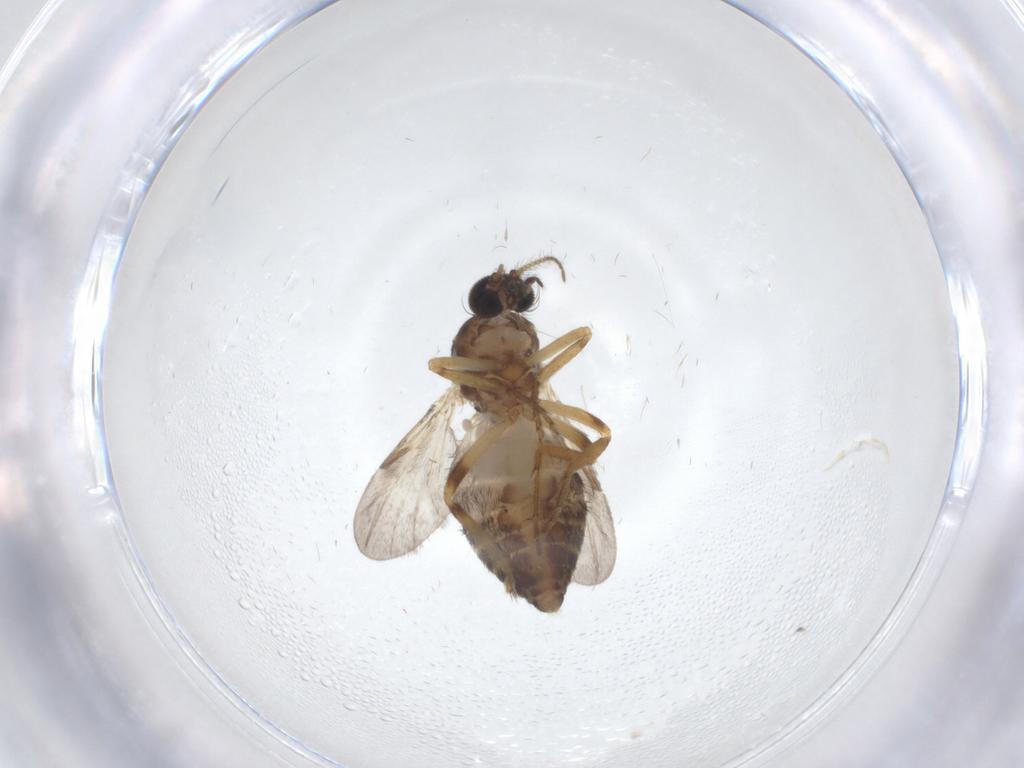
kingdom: Animalia
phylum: Arthropoda
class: Insecta
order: Diptera
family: Ceratopogonidae
